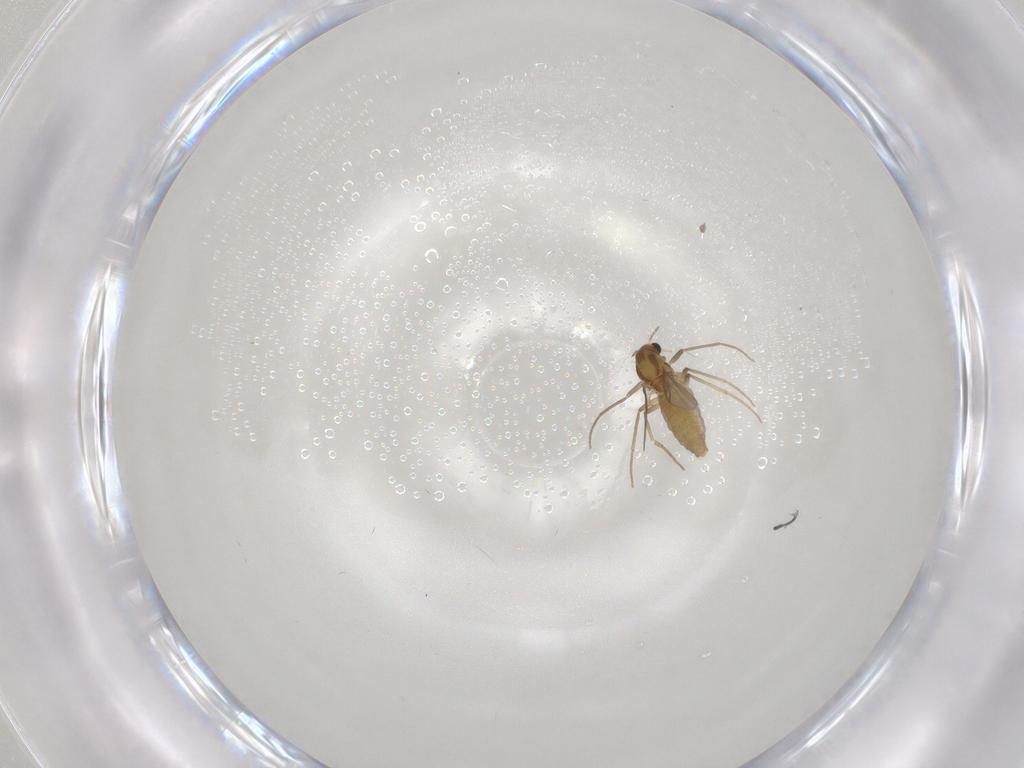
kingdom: Animalia
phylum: Arthropoda
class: Insecta
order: Diptera
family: Chironomidae
